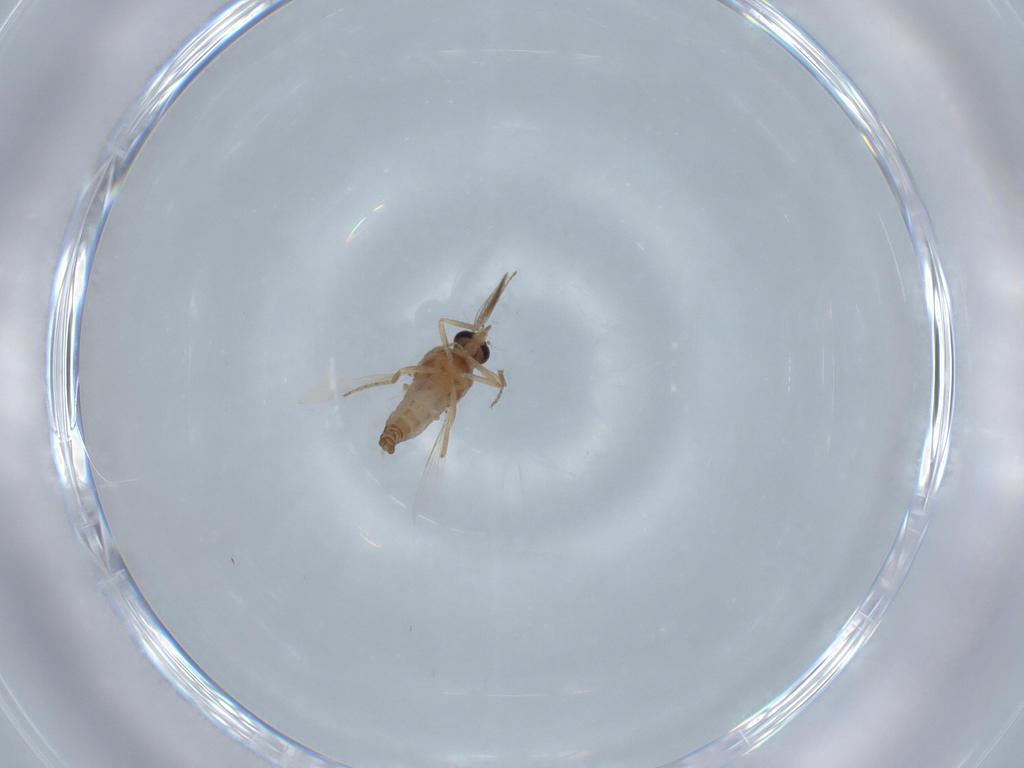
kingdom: Animalia
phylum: Arthropoda
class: Insecta
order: Diptera
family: Ceratopogonidae
